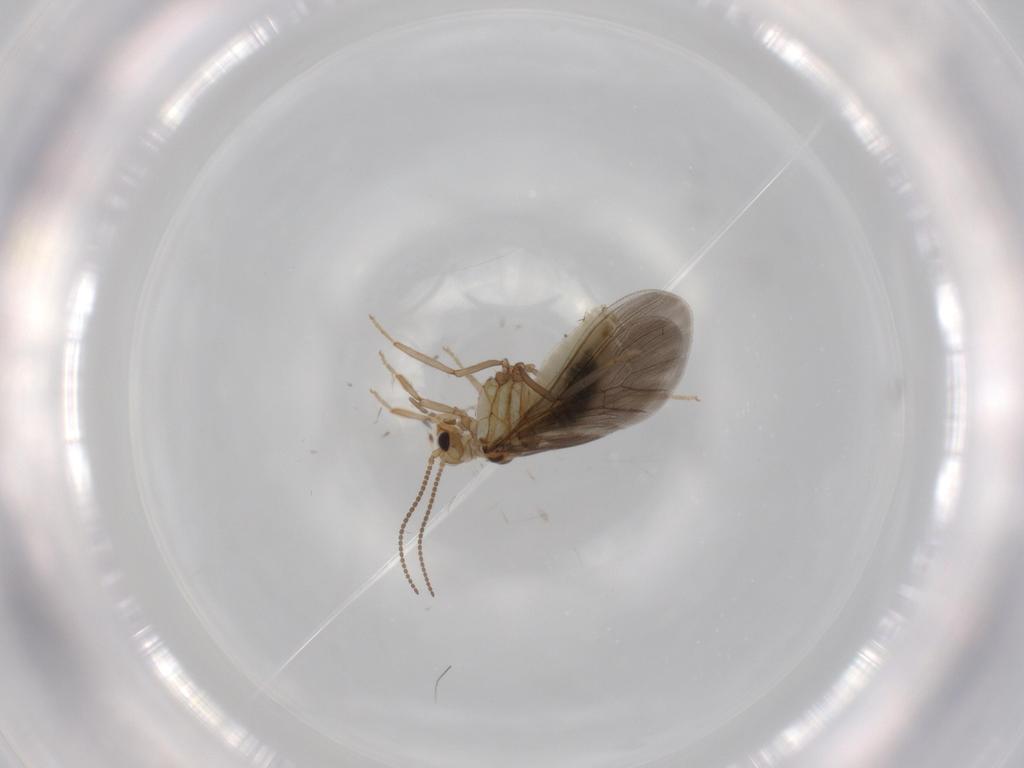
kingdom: Animalia
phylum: Arthropoda
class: Insecta
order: Neuroptera
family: Coniopterygidae
